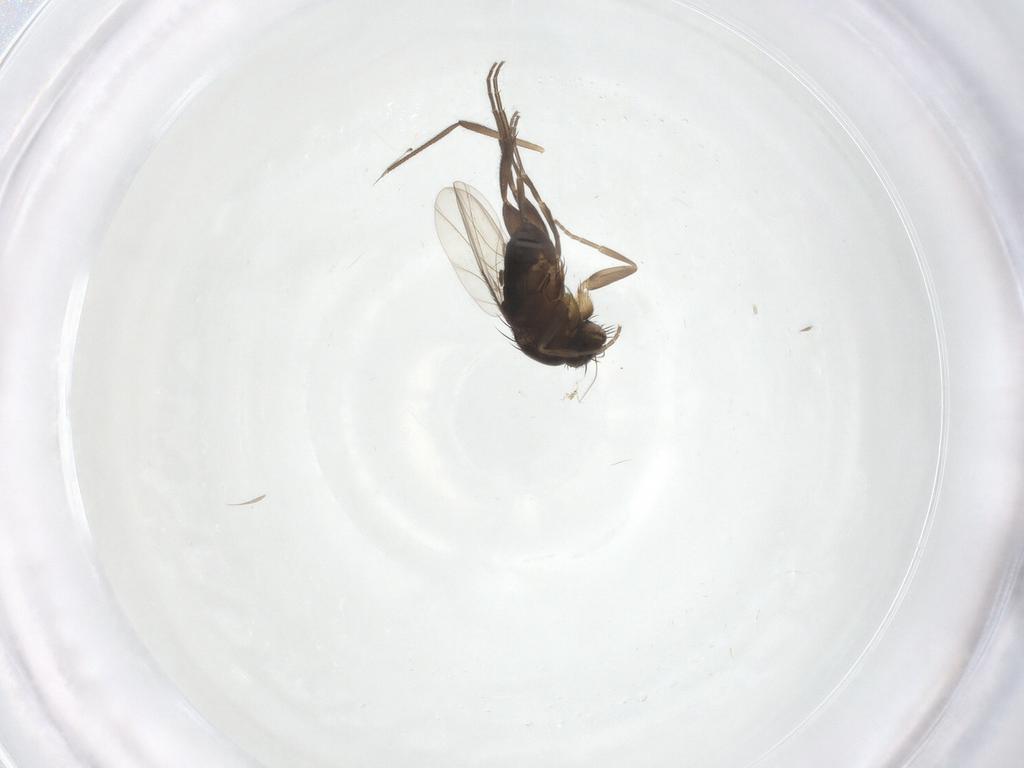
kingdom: Animalia
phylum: Arthropoda
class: Insecta
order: Diptera
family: Phoridae
